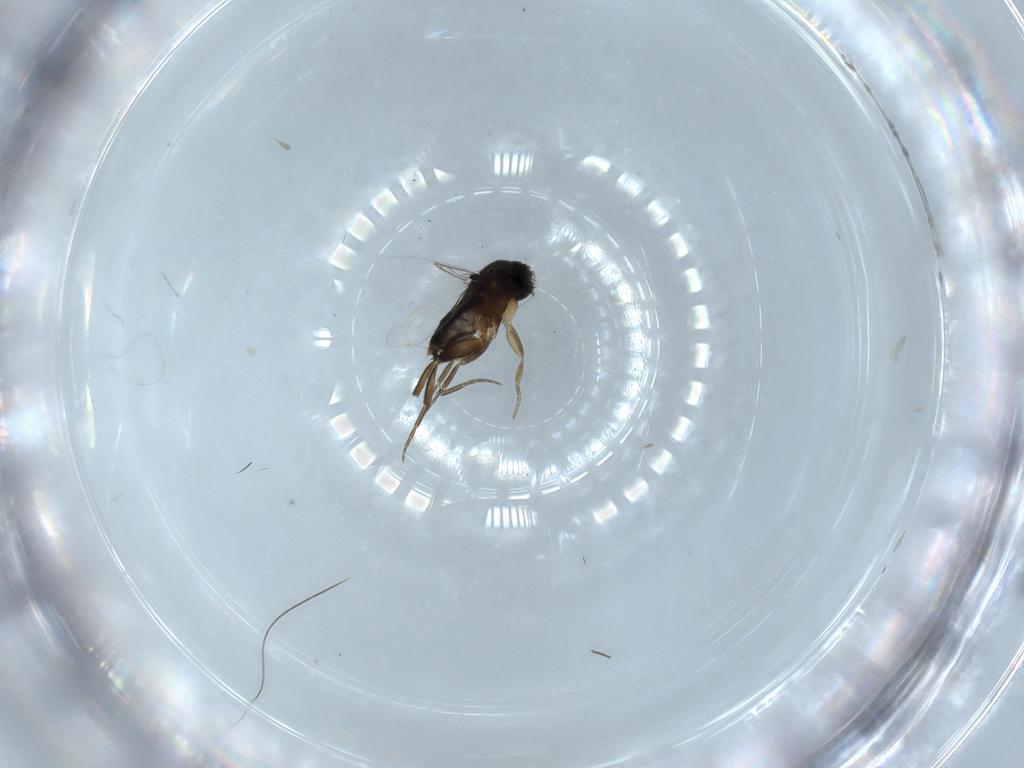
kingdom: Animalia
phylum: Arthropoda
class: Insecta
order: Diptera
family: Phoridae
